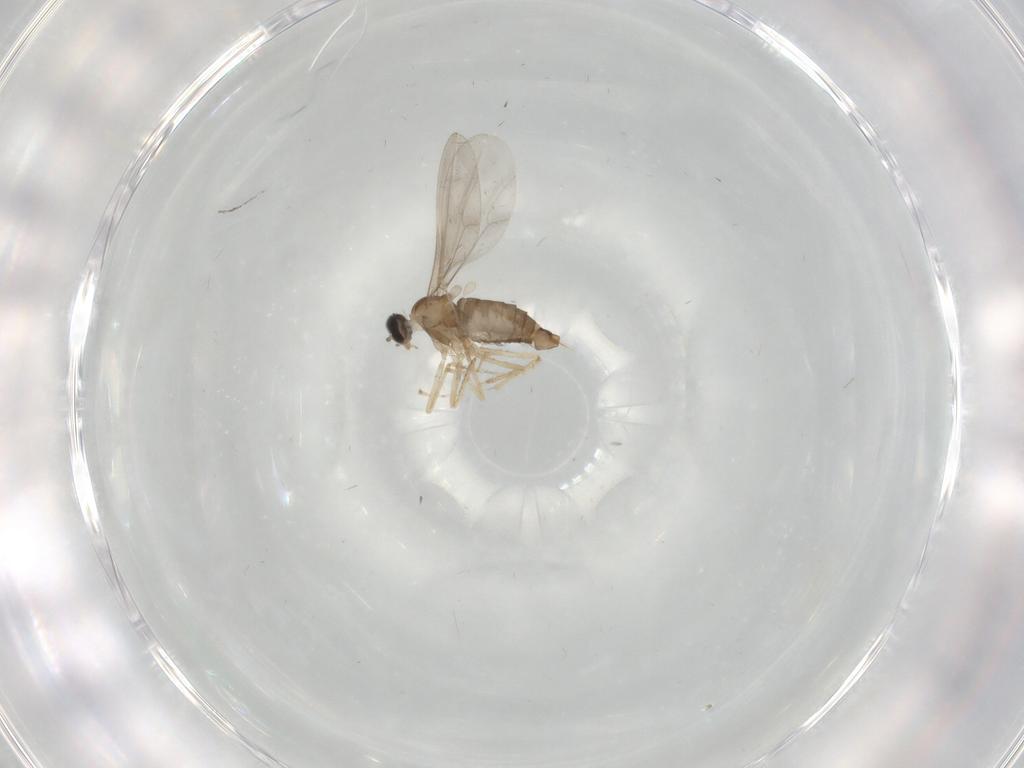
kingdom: Animalia
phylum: Arthropoda
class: Insecta
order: Diptera
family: Cecidomyiidae
